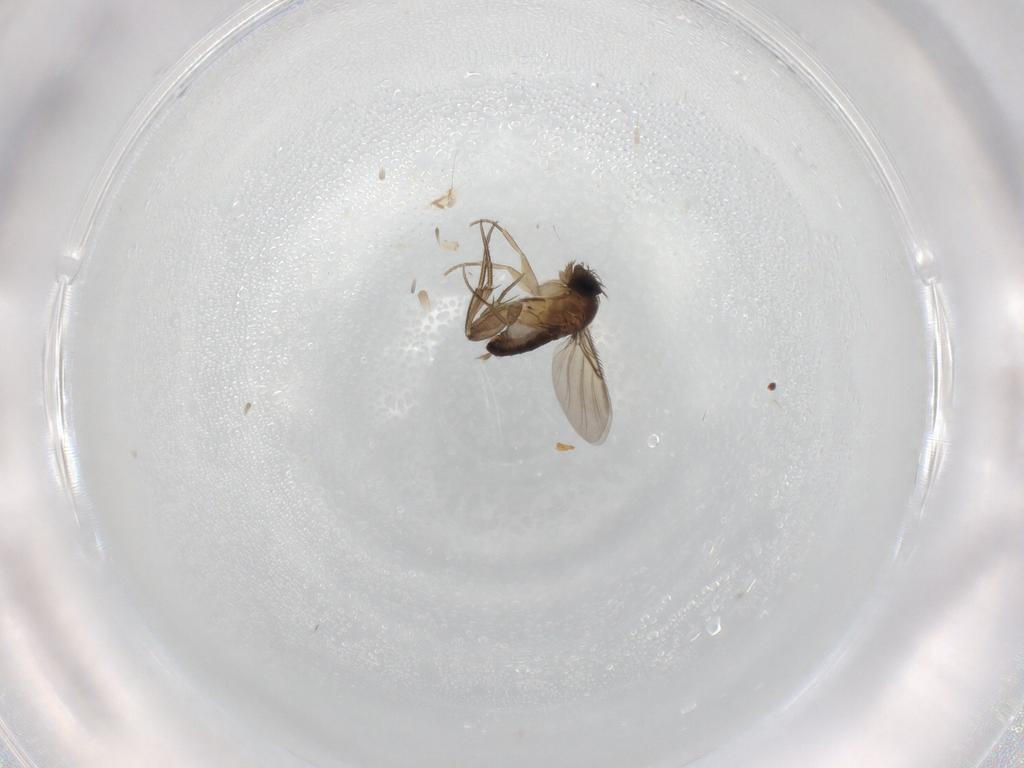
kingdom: Animalia
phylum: Arthropoda
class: Insecta
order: Diptera
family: Phoridae
